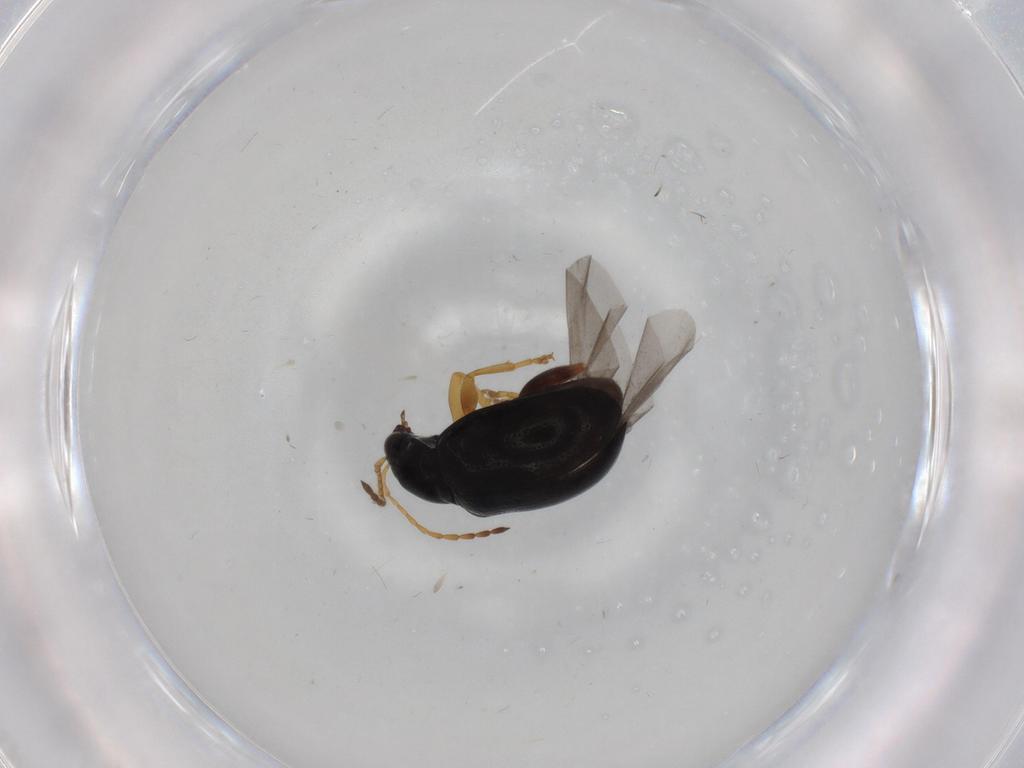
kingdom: Animalia
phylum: Arthropoda
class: Insecta
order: Coleoptera
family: Chrysomelidae
